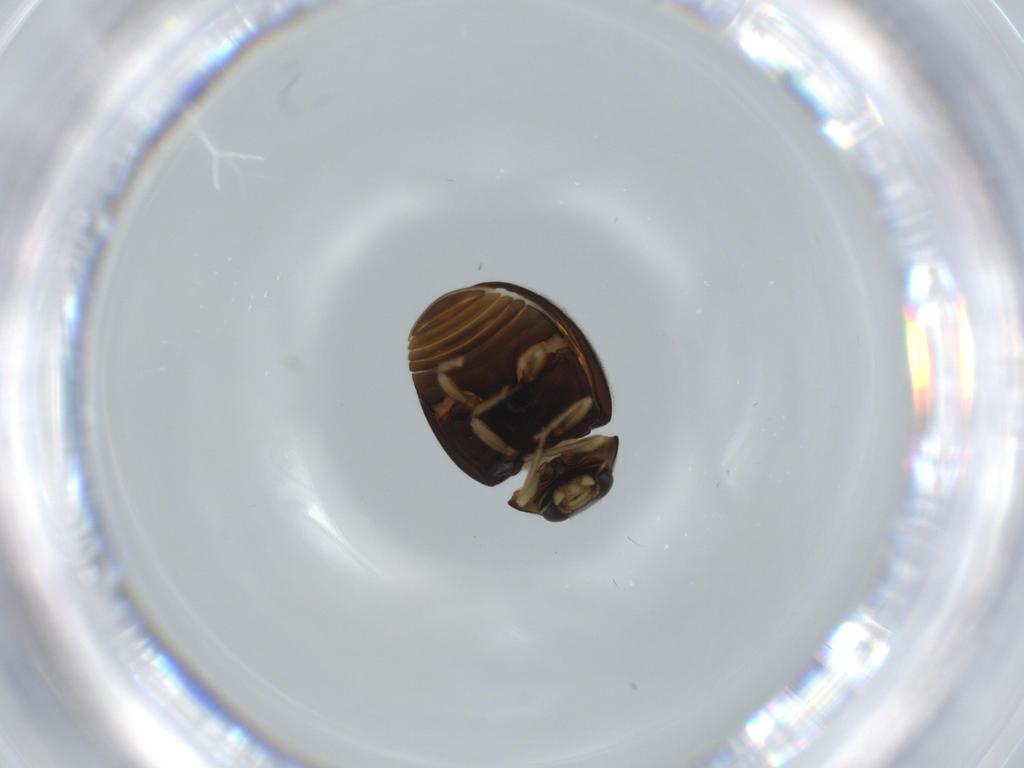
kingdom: Animalia
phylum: Arthropoda
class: Insecta
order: Coleoptera
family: Coccinellidae
